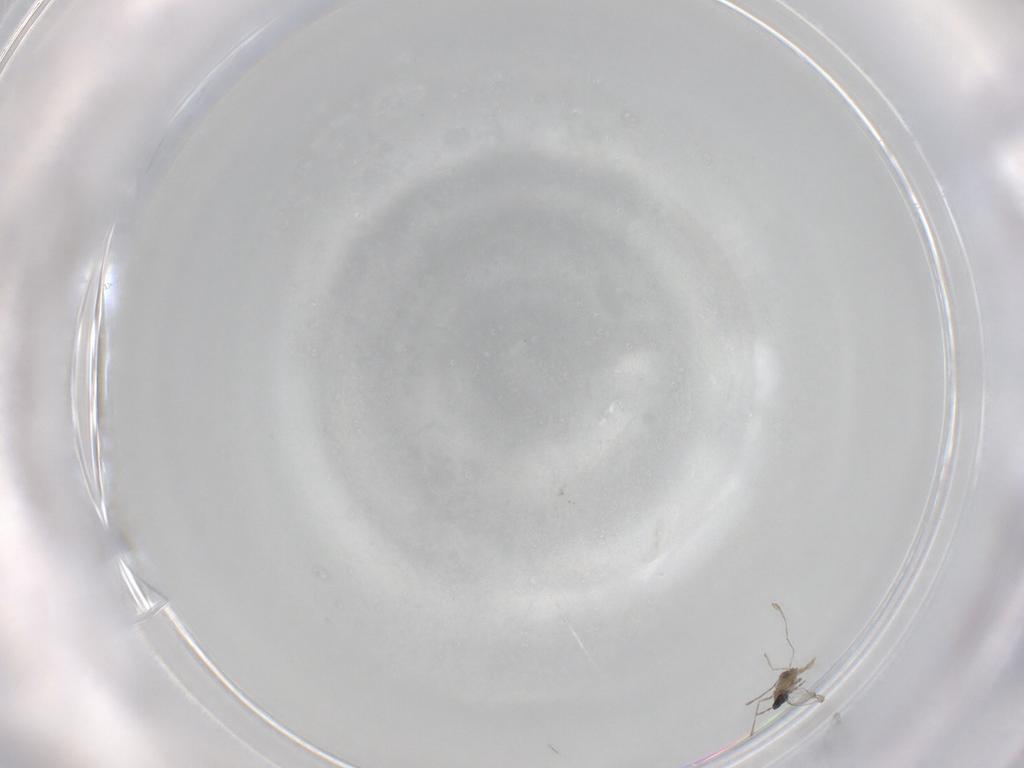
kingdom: Animalia
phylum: Arthropoda
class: Insecta
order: Diptera
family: Cecidomyiidae
